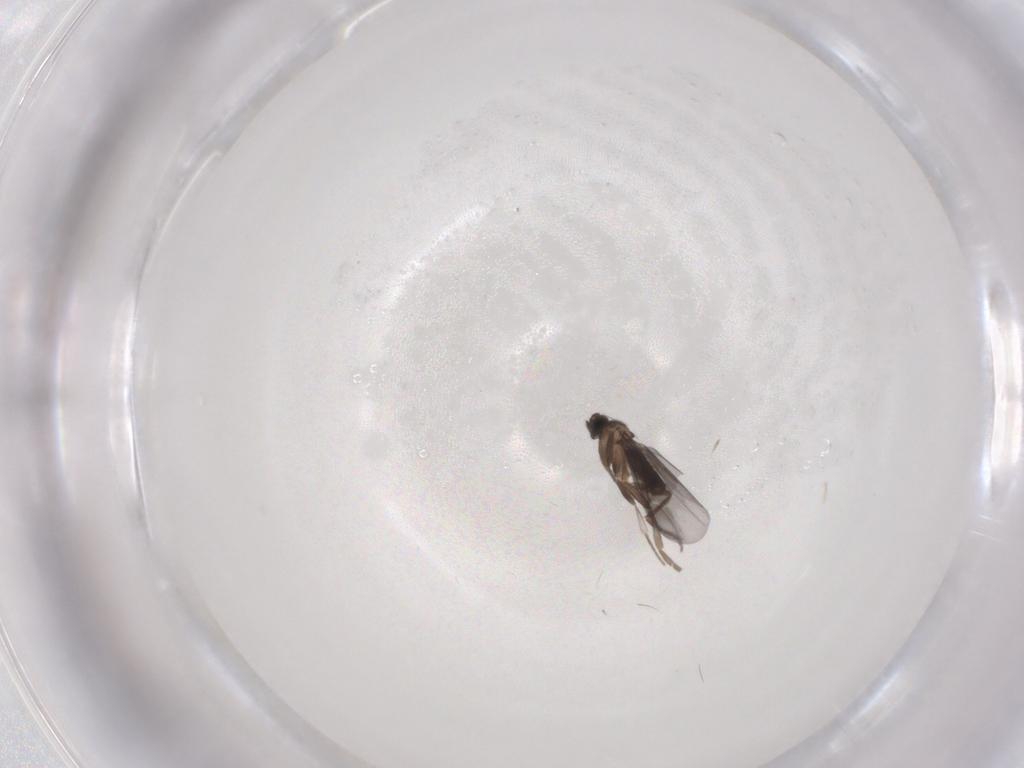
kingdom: Animalia
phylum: Arthropoda
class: Insecta
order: Diptera
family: Phoridae
